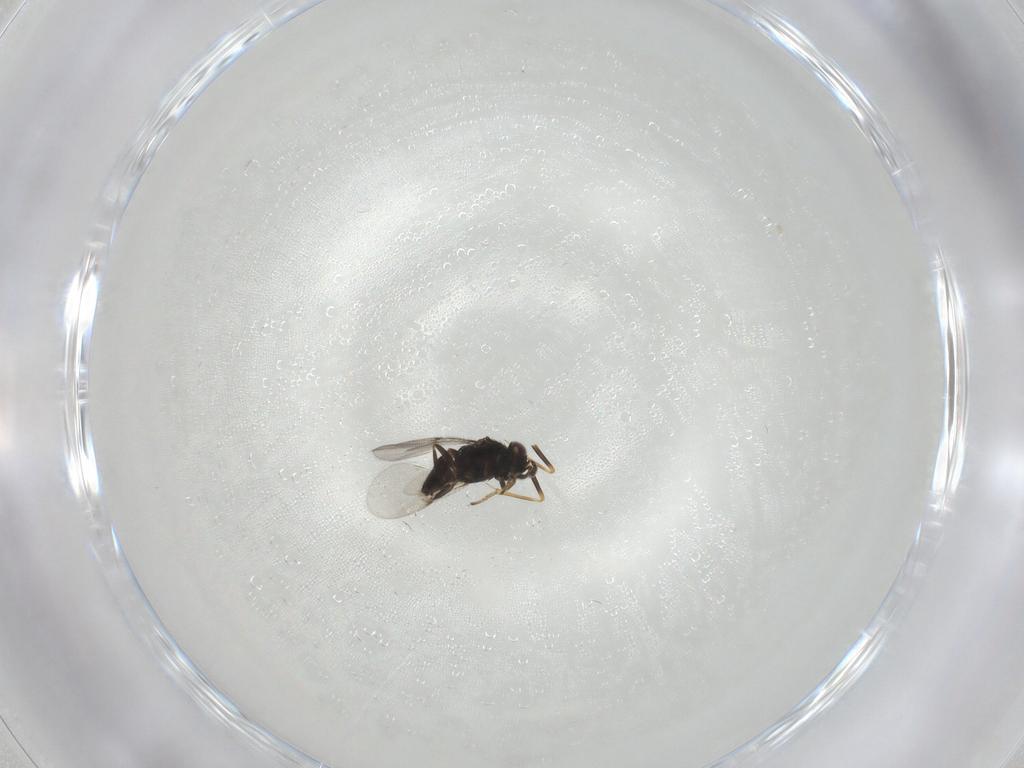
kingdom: Animalia
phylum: Arthropoda
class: Insecta
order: Hymenoptera
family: Encyrtidae
